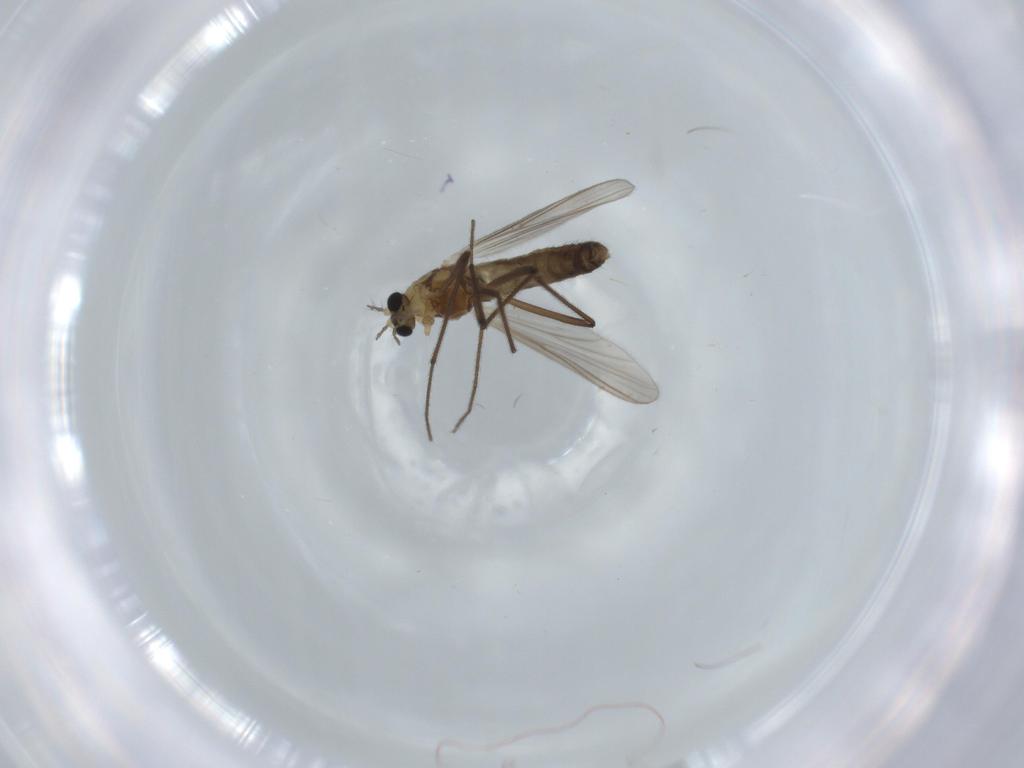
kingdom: Animalia
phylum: Arthropoda
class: Insecta
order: Diptera
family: Chironomidae
